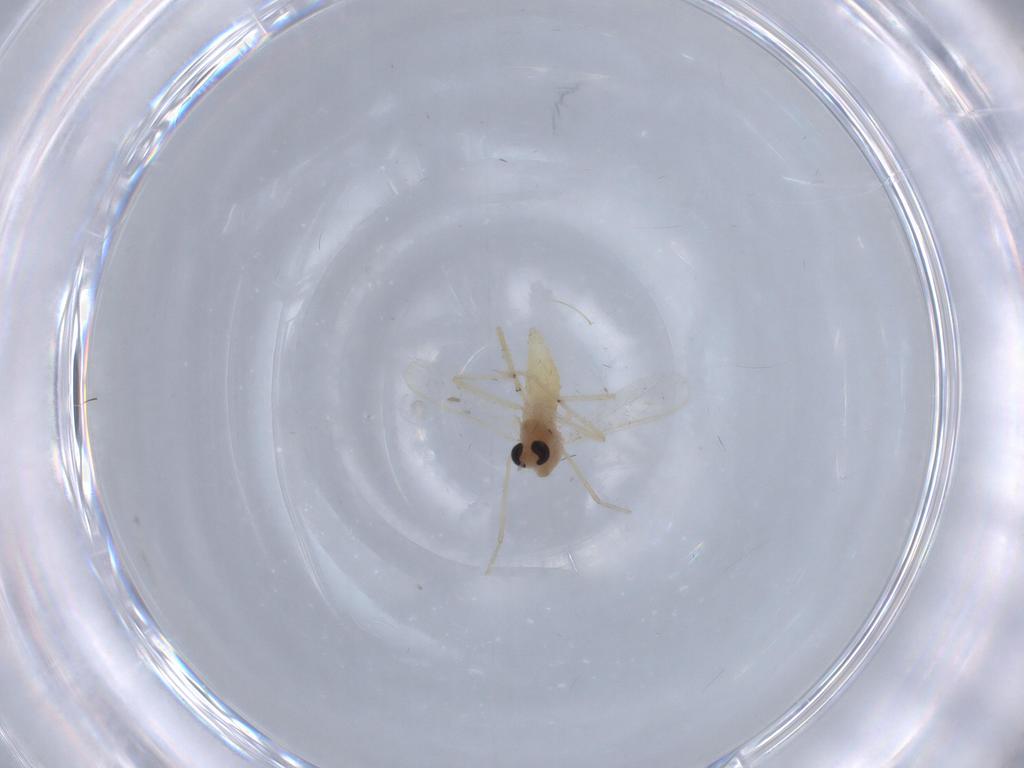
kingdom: Animalia
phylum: Arthropoda
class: Insecta
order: Diptera
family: Chironomidae
